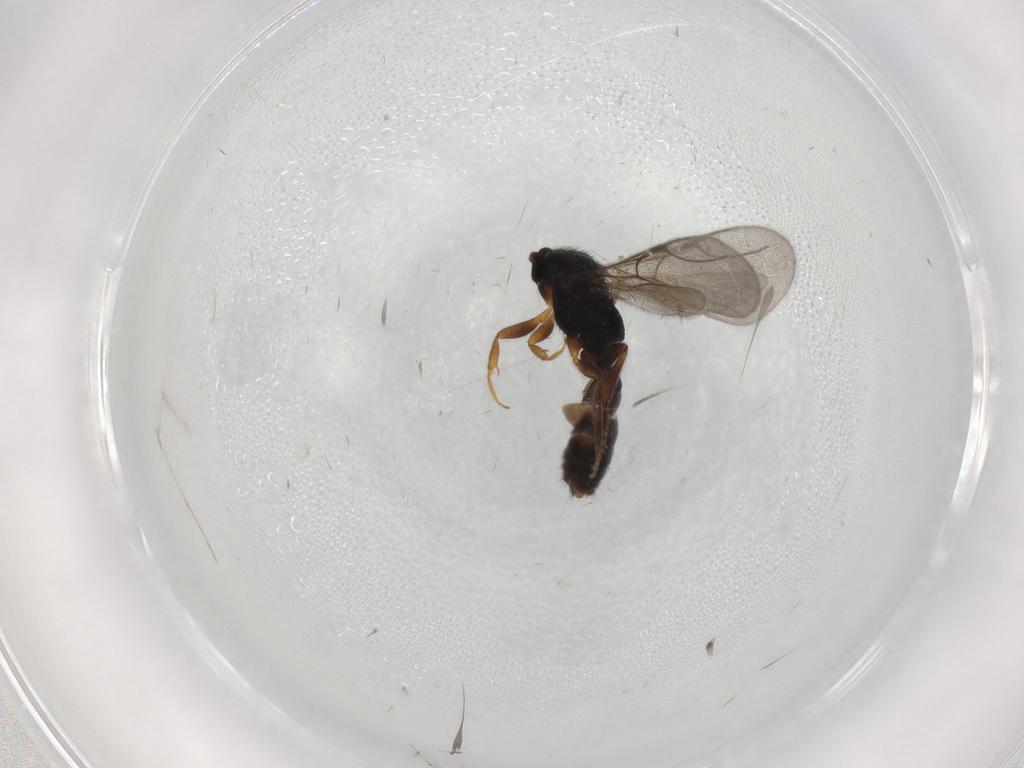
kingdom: Animalia
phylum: Arthropoda
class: Insecta
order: Hymenoptera
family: Bethylidae
